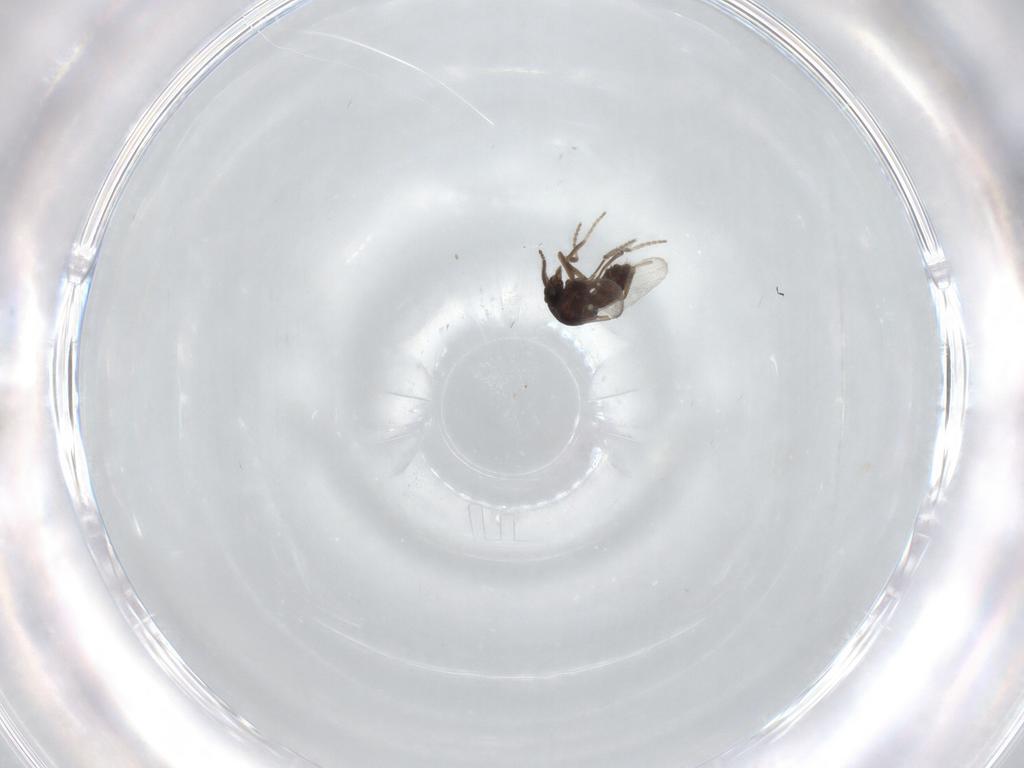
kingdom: Animalia
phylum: Arthropoda
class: Insecta
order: Diptera
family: Ceratopogonidae
